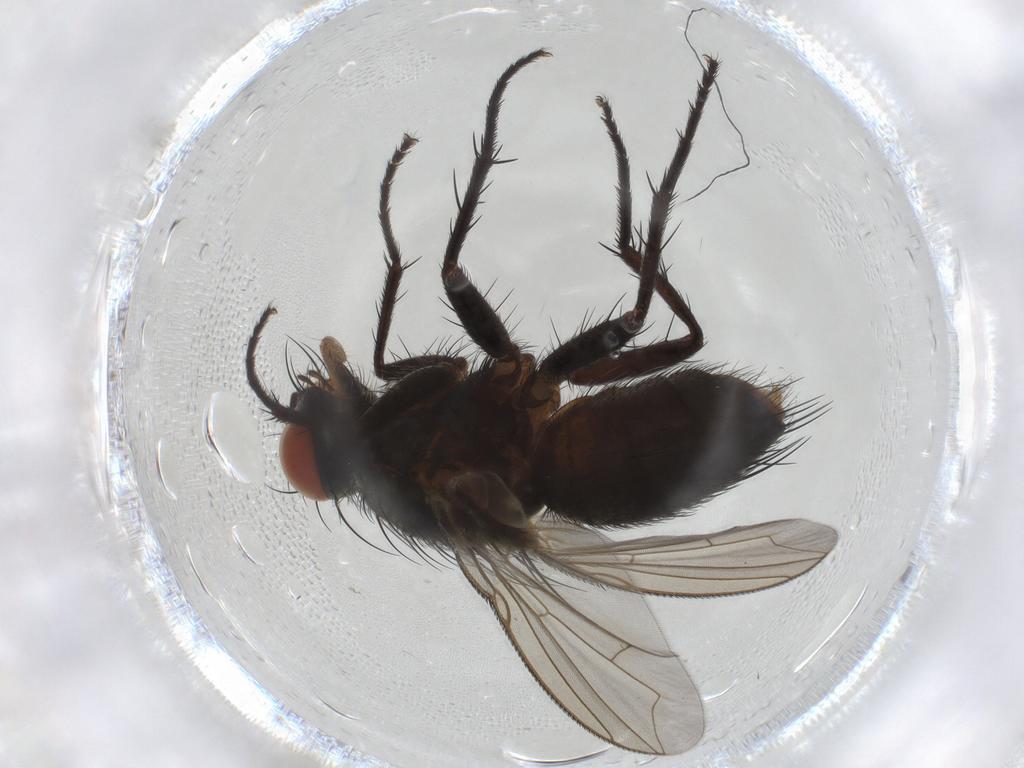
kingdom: Animalia
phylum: Arthropoda
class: Insecta
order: Diptera
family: Sarcophagidae
